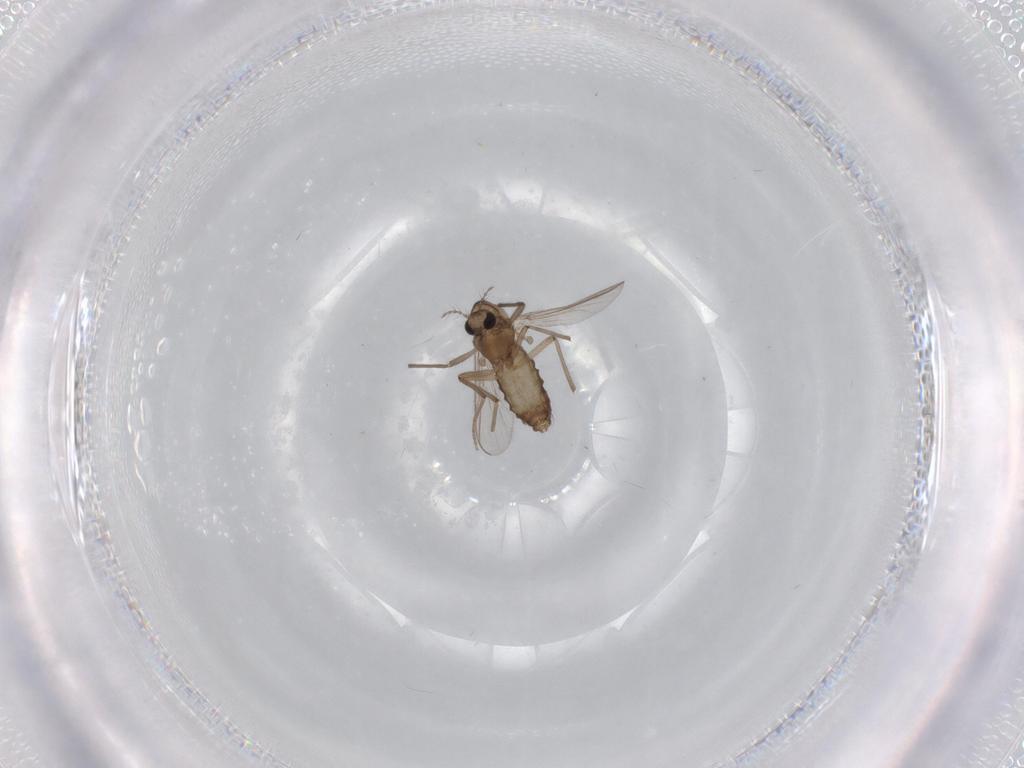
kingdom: Animalia
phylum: Arthropoda
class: Insecta
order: Diptera
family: Chironomidae
